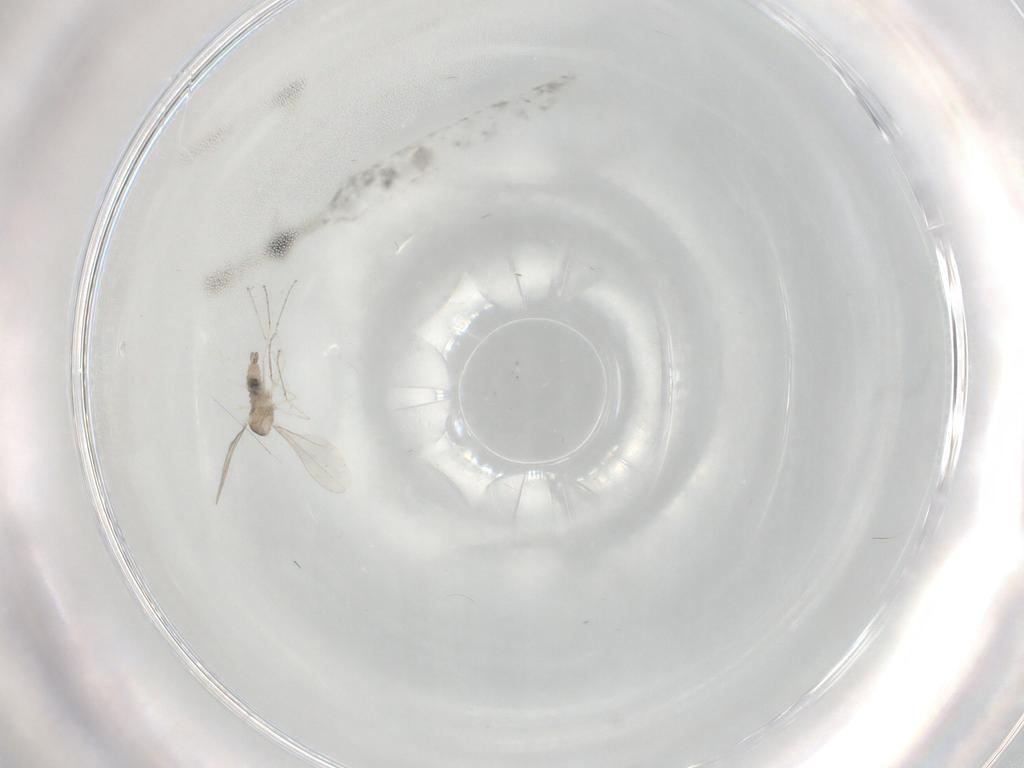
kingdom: Animalia
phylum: Arthropoda
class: Insecta
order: Diptera
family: Cecidomyiidae
